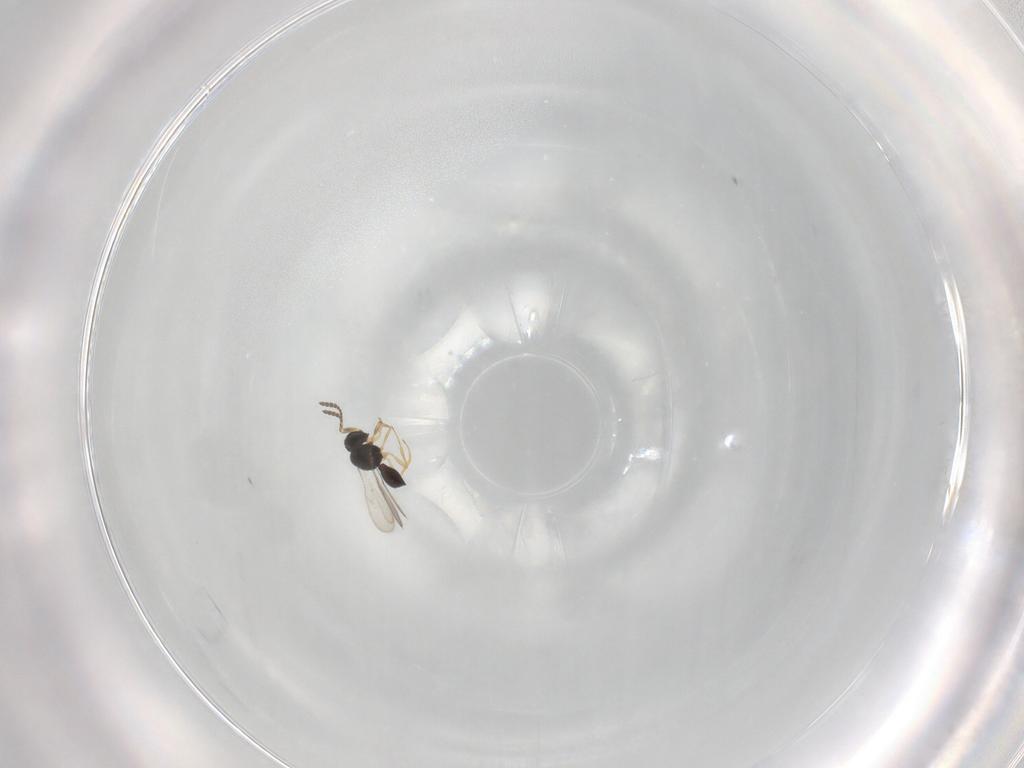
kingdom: Animalia
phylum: Arthropoda
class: Insecta
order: Hymenoptera
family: Scelionidae
